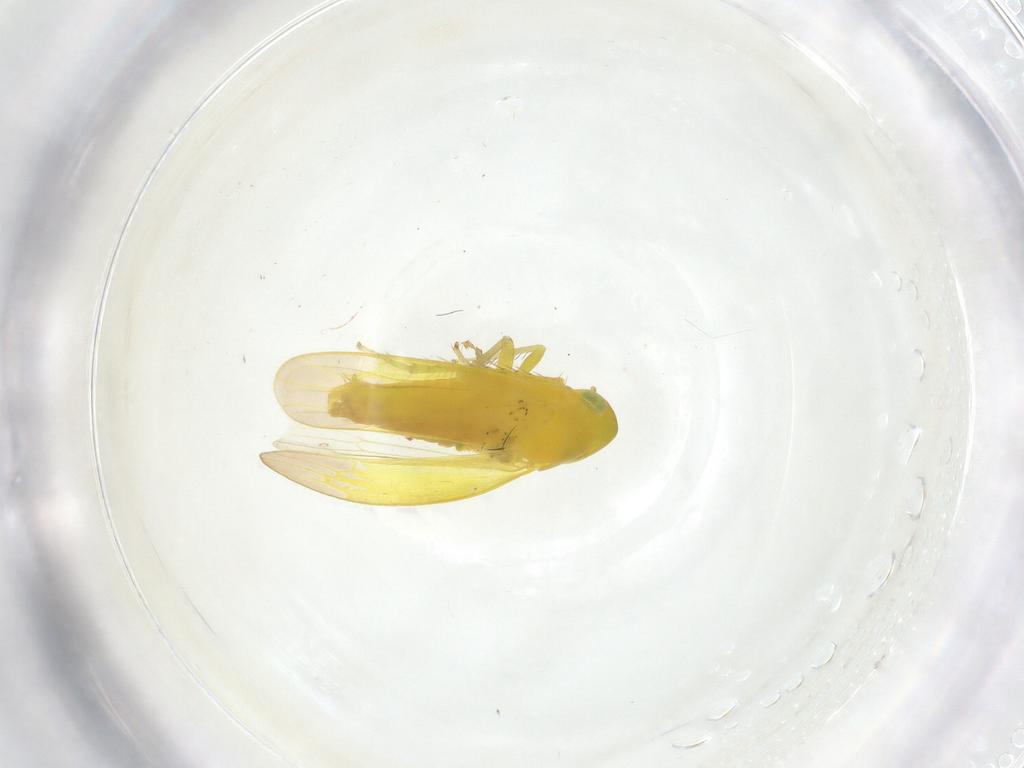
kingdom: Animalia
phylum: Arthropoda
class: Insecta
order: Hemiptera
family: Cicadellidae
